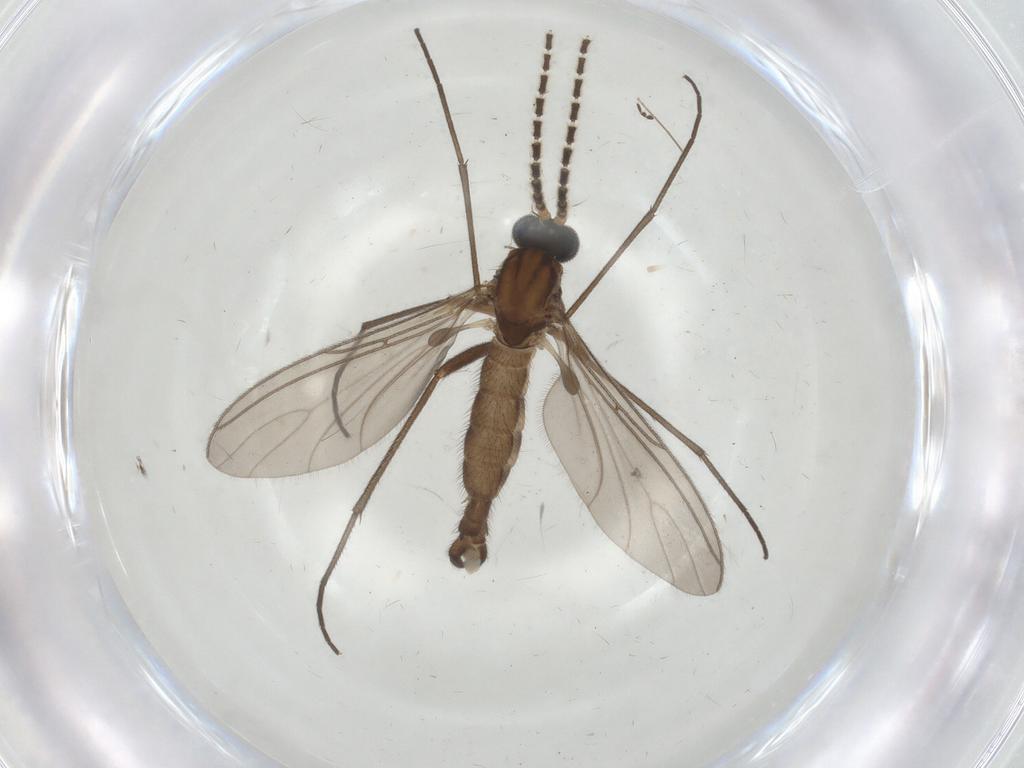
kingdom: Animalia
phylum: Arthropoda
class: Insecta
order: Diptera
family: Sciaridae
